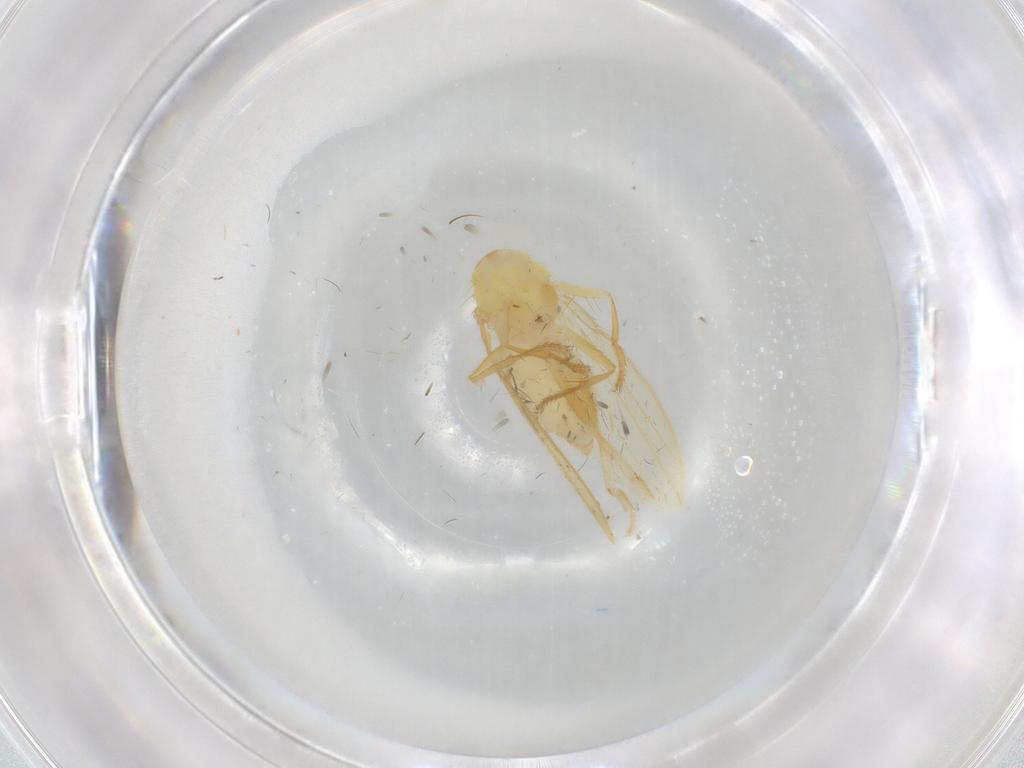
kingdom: Animalia
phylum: Arthropoda
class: Insecta
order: Diptera
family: Periscelididae
